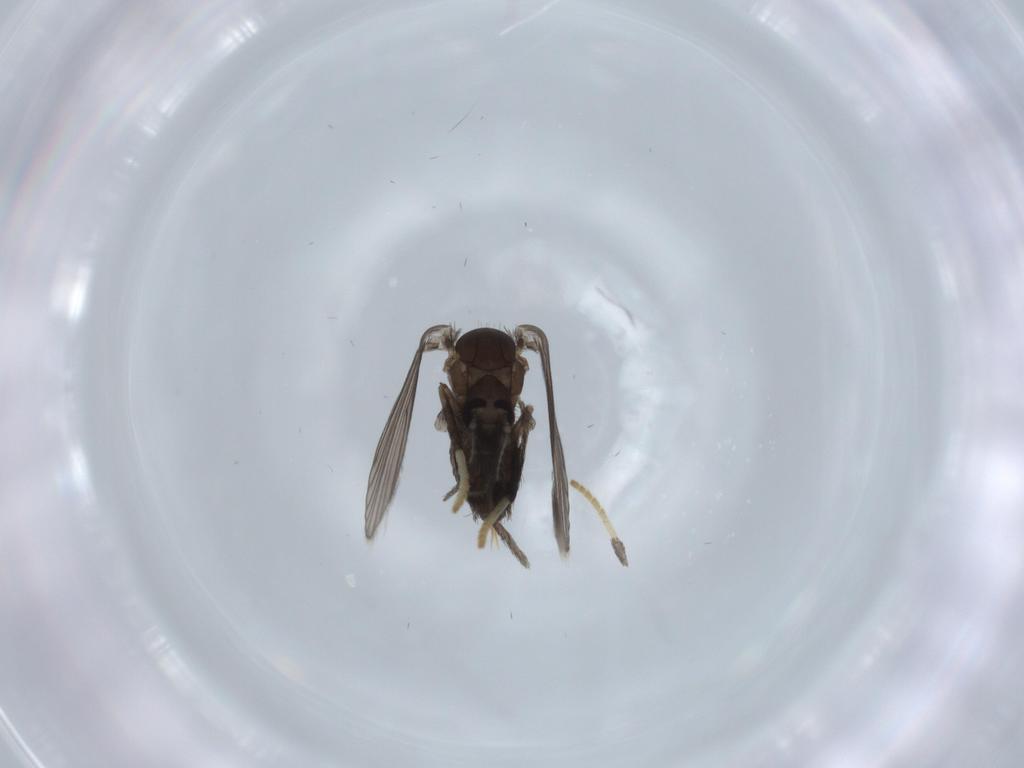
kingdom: Animalia
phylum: Arthropoda
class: Insecta
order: Diptera
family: Psychodidae
